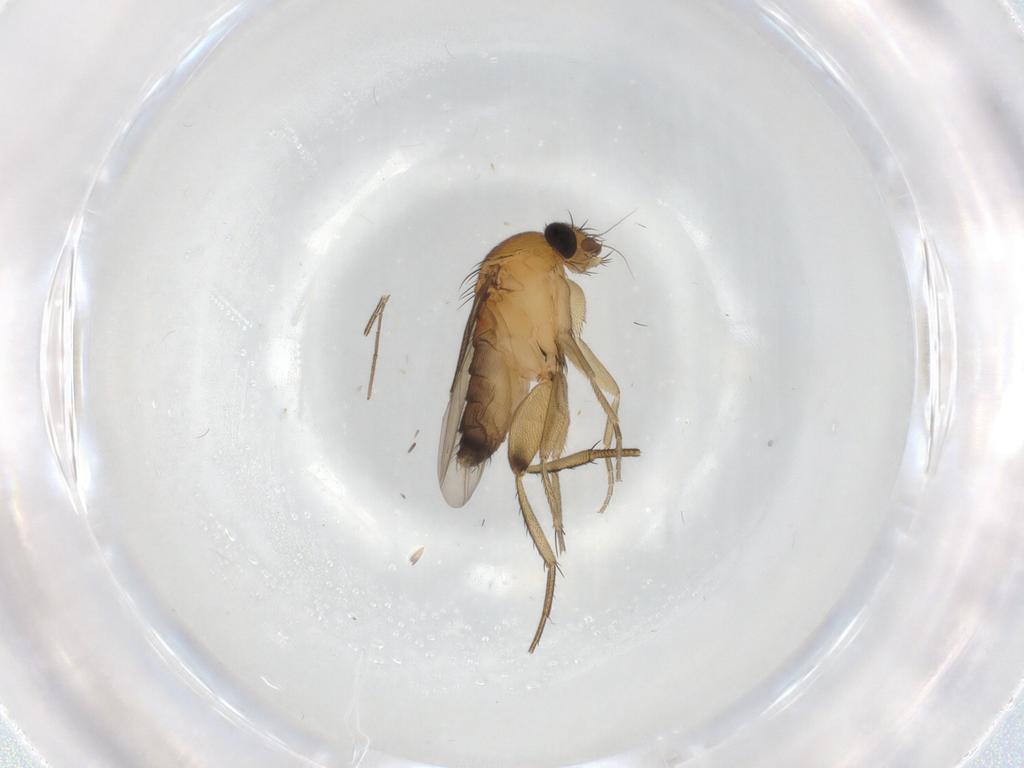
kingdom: Animalia
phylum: Arthropoda
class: Insecta
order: Diptera
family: Phoridae
